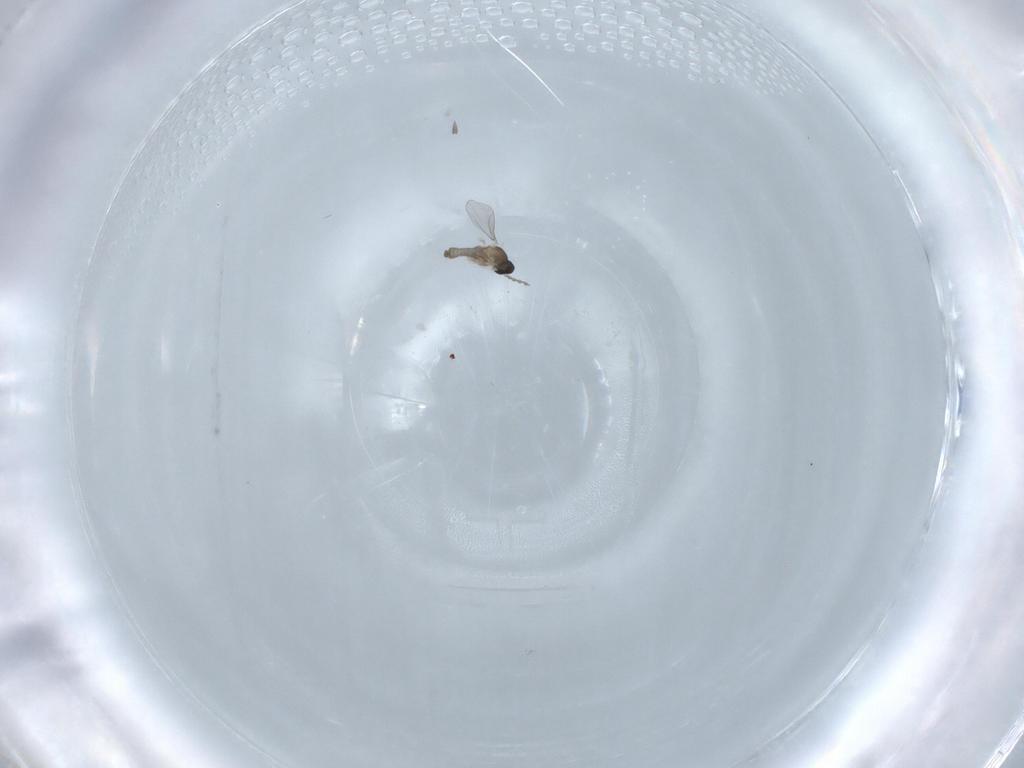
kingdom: Animalia
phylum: Arthropoda
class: Insecta
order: Diptera
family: Cecidomyiidae
